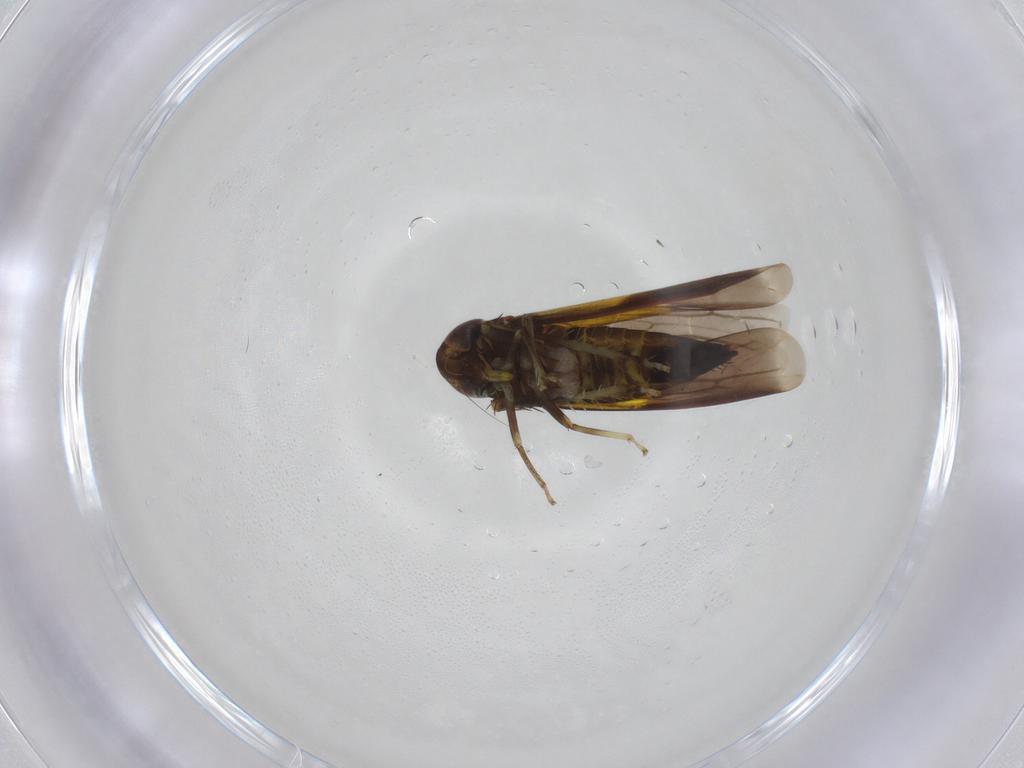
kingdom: Animalia
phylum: Arthropoda
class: Insecta
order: Hemiptera
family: Cicadellidae
